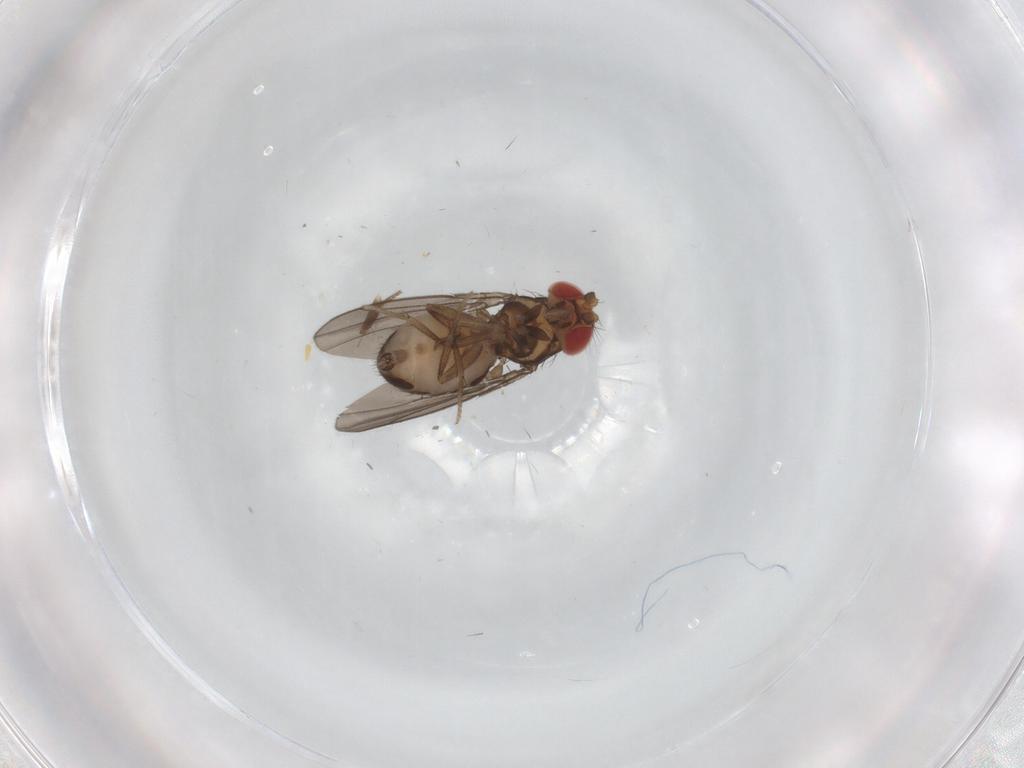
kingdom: Animalia
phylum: Arthropoda
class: Insecta
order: Diptera
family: Drosophilidae
